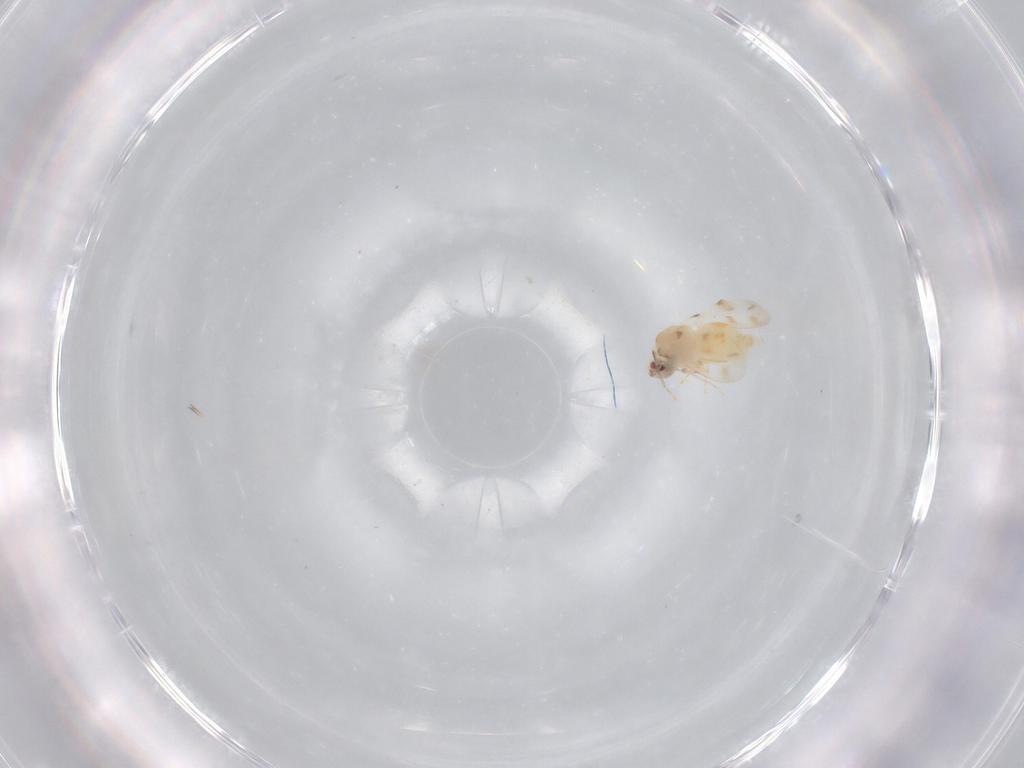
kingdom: Animalia
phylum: Arthropoda
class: Insecta
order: Hemiptera
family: Aleyrodidae
